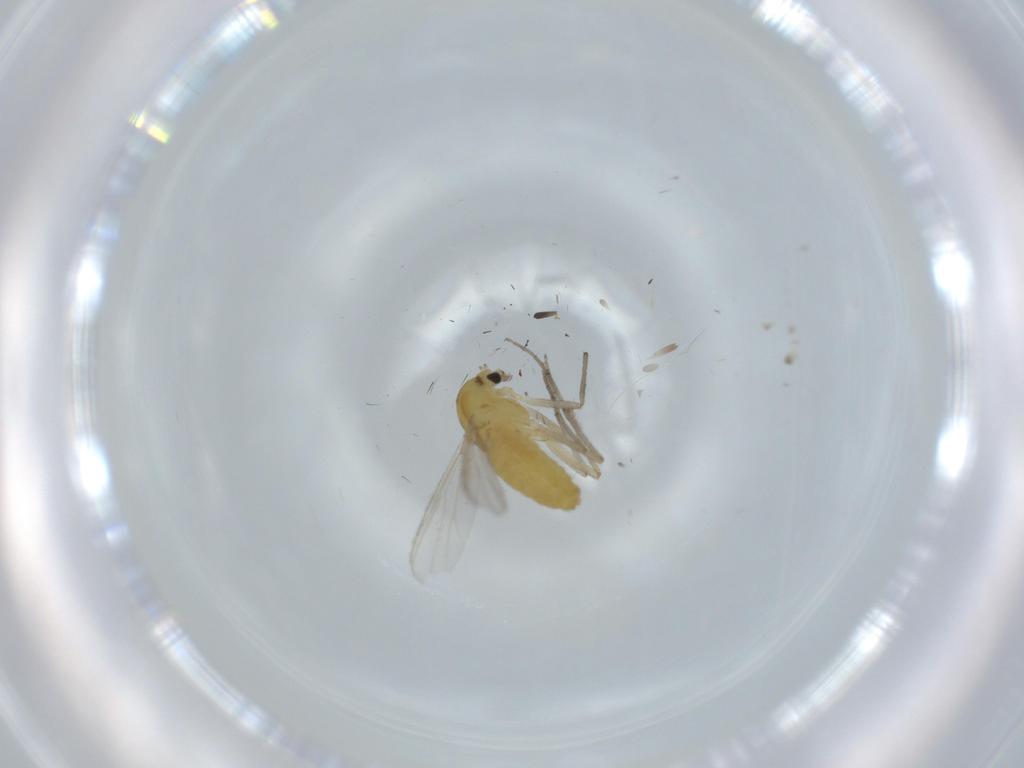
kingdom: Animalia
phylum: Arthropoda
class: Insecta
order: Diptera
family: Chironomidae
